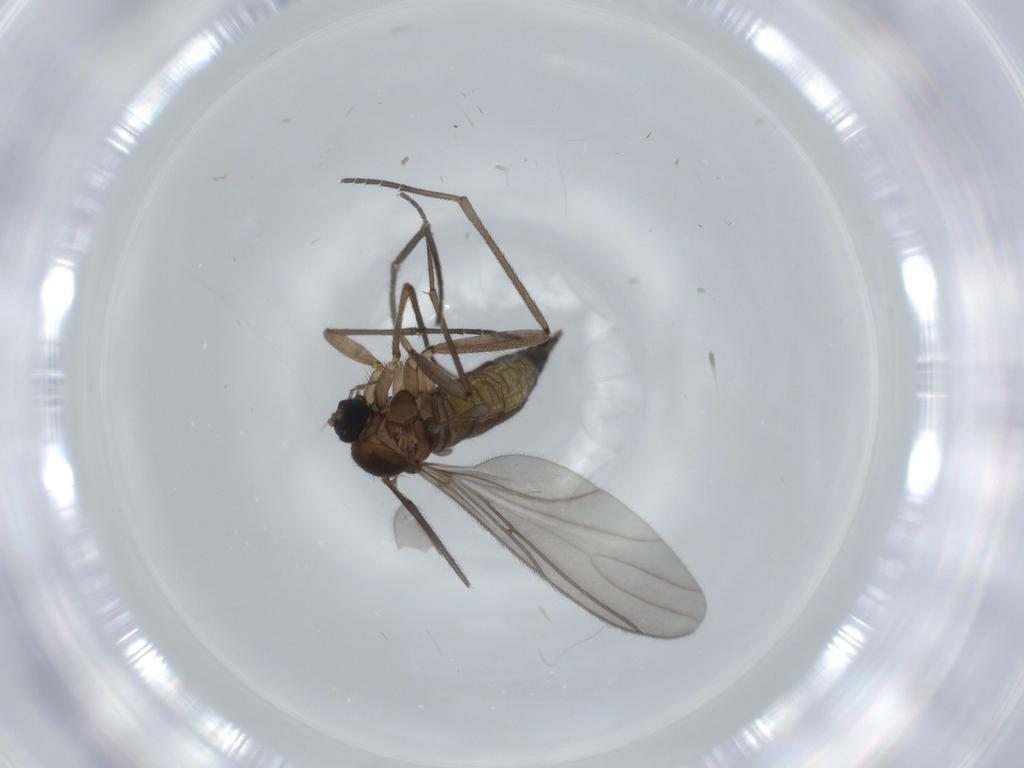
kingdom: Animalia
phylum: Arthropoda
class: Insecta
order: Diptera
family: Sciaridae
